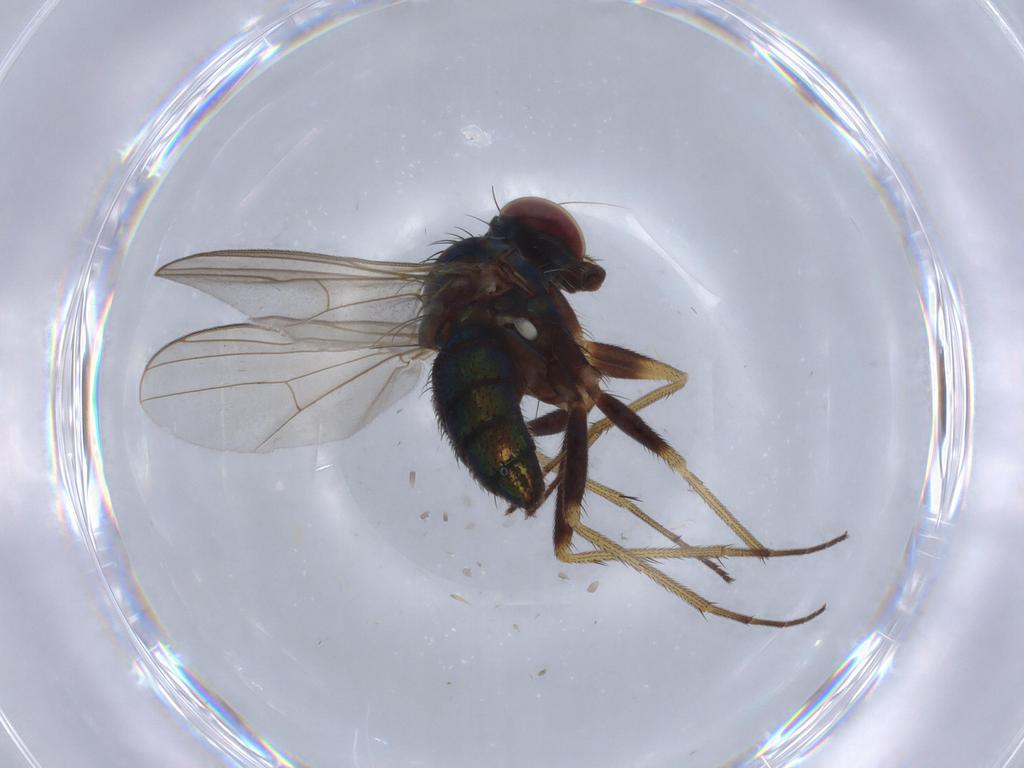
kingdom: Animalia
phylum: Arthropoda
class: Insecta
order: Diptera
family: Dolichopodidae
